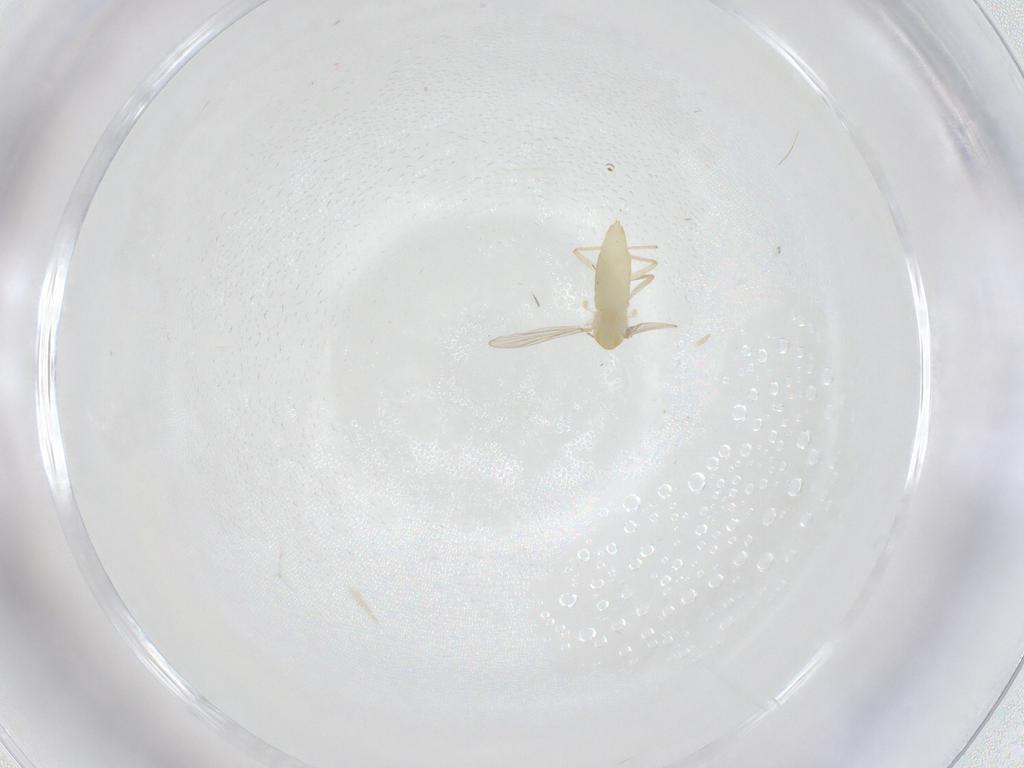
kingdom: Animalia
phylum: Arthropoda
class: Insecta
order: Diptera
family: Chironomidae
